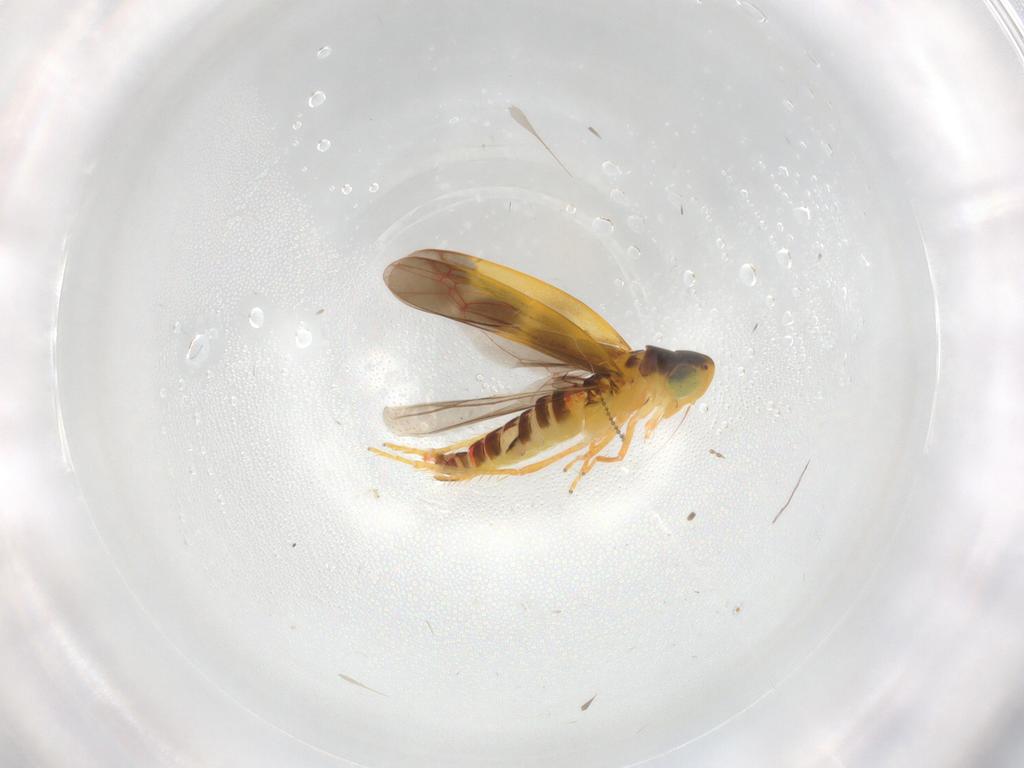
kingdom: Animalia
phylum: Arthropoda
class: Insecta
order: Hemiptera
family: Cicadellidae
